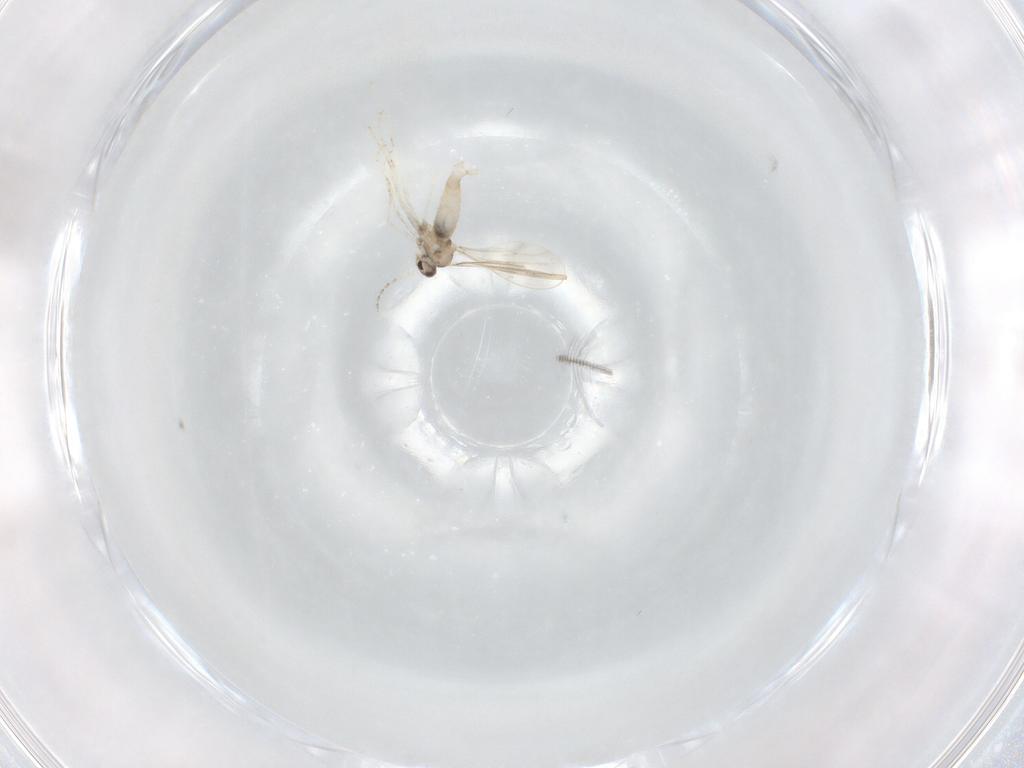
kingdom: Animalia
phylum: Arthropoda
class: Insecta
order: Diptera
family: Cecidomyiidae
